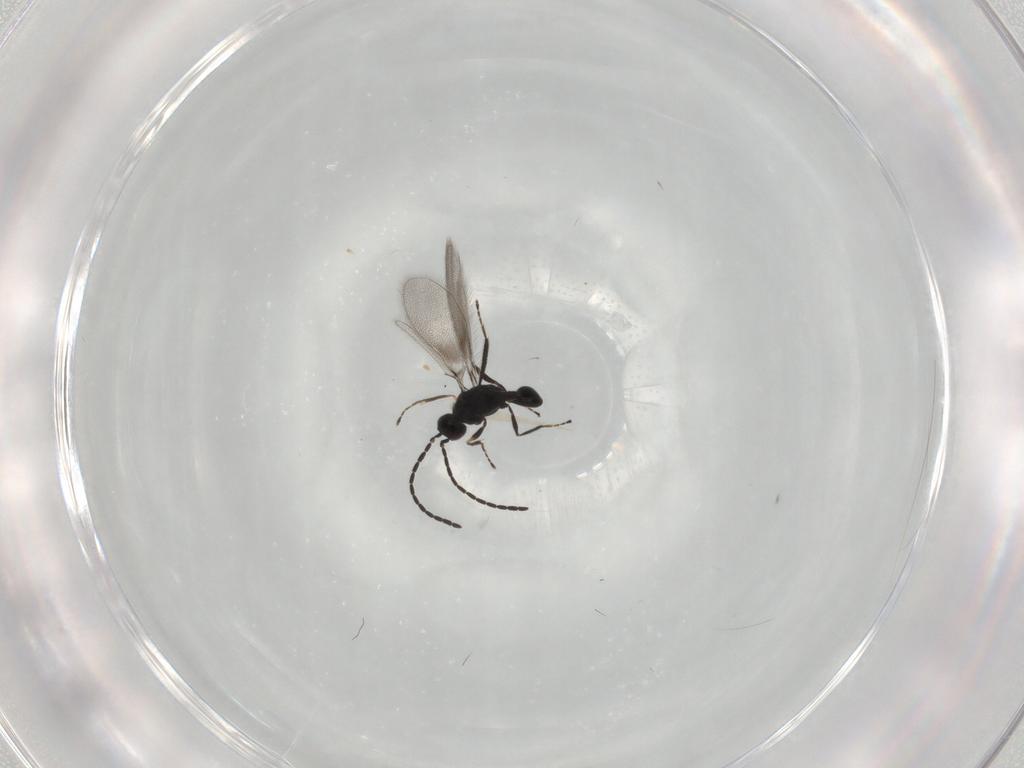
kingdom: Animalia
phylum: Arthropoda
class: Insecta
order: Hymenoptera
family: Mymaridae
